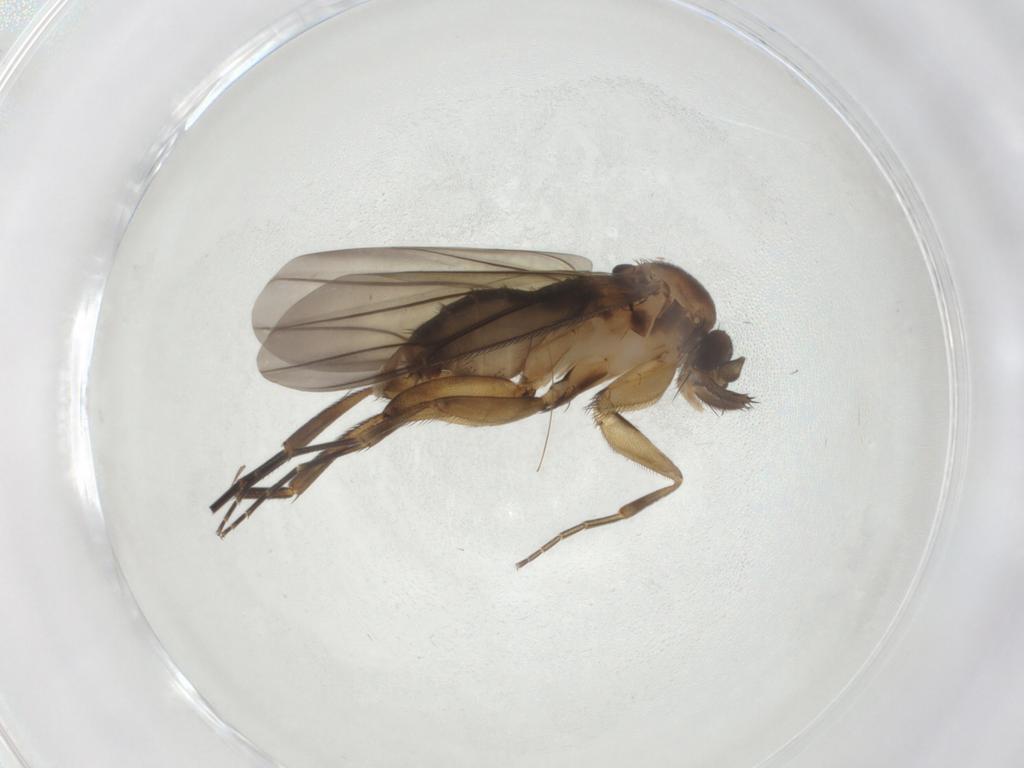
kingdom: Animalia
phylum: Arthropoda
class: Insecta
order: Diptera
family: Phoridae
